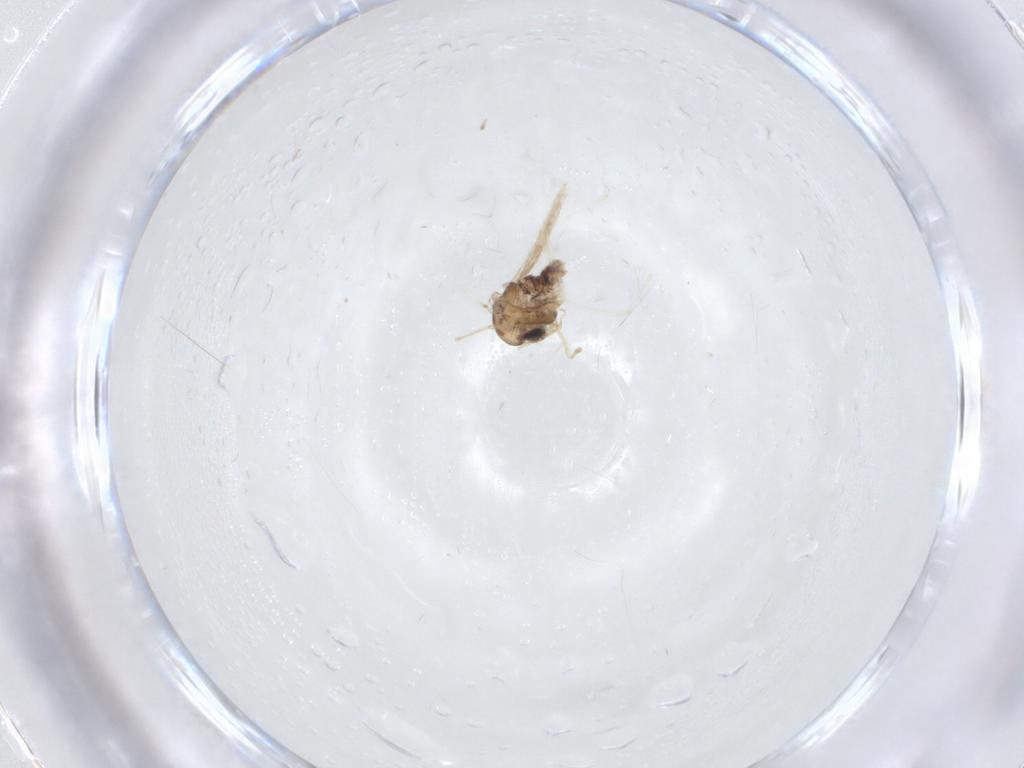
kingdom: Animalia
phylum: Arthropoda
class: Insecta
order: Diptera
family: Chironomidae
